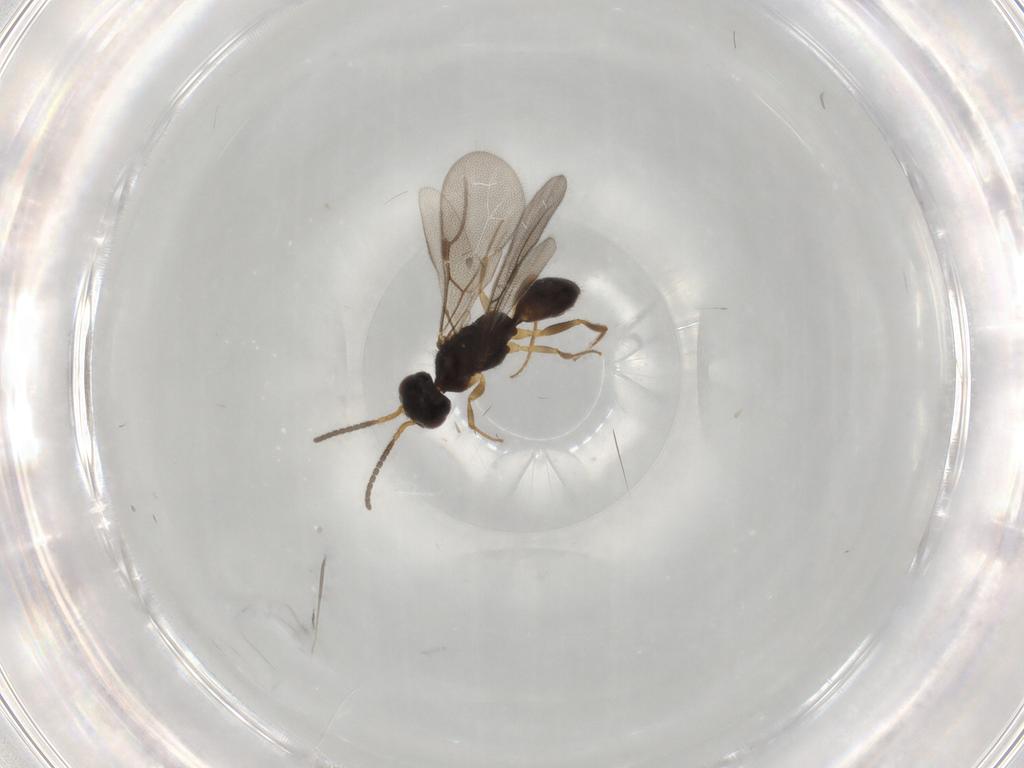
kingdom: Animalia
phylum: Arthropoda
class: Insecta
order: Hymenoptera
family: Bethylidae
